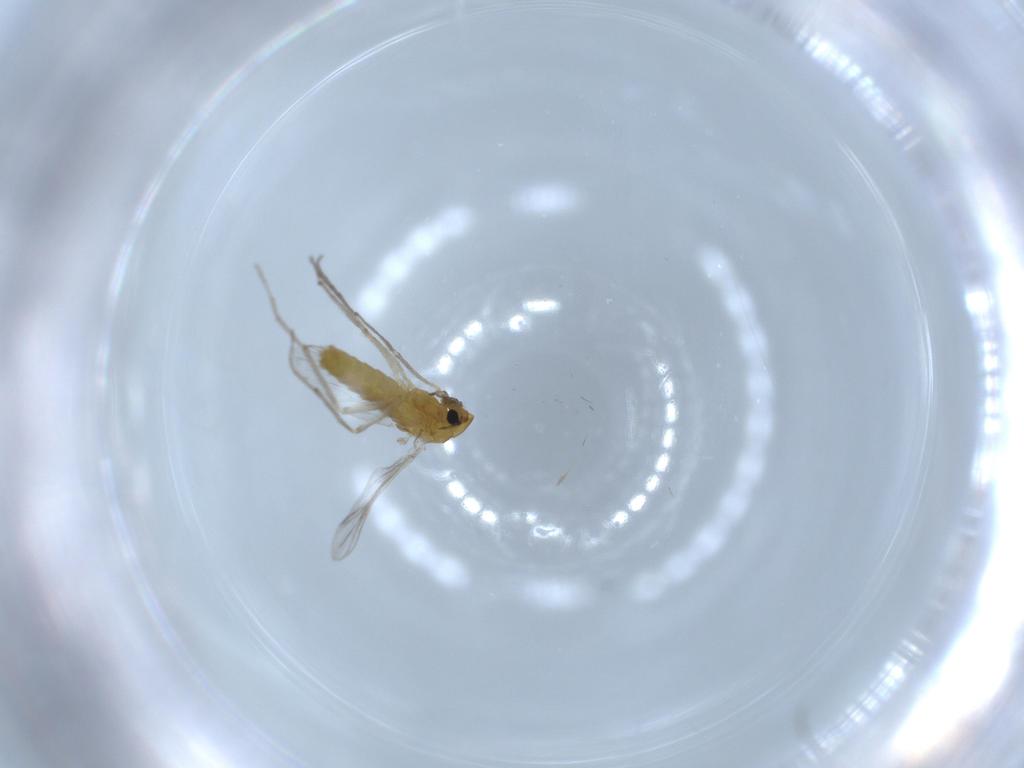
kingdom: Animalia
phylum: Arthropoda
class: Insecta
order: Diptera
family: Chironomidae
